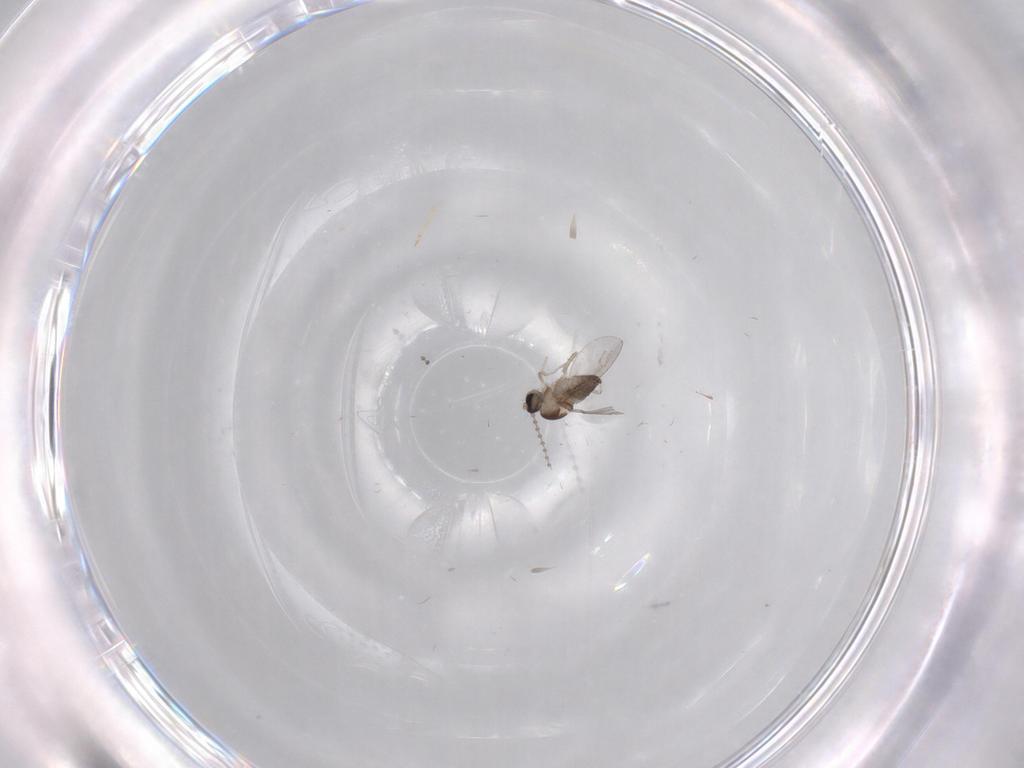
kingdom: Animalia
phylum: Arthropoda
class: Insecta
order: Diptera
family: Cecidomyiidae
